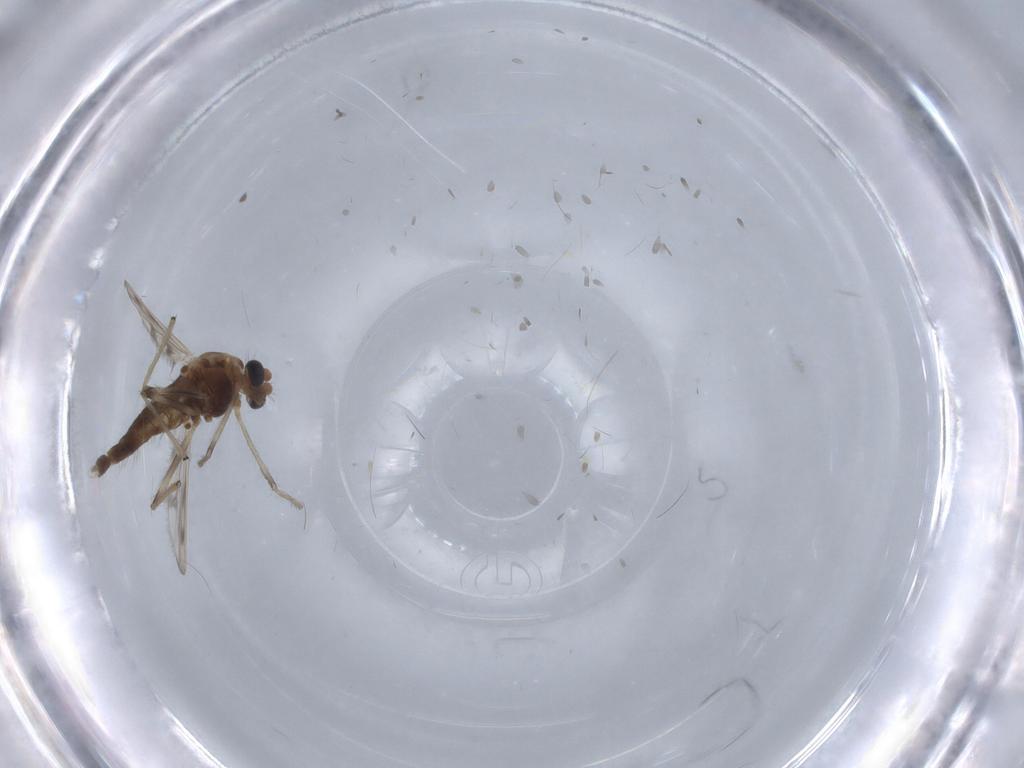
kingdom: Animalia
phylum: Arthropoda
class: Insecta
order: Diptera
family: Chironomidae
